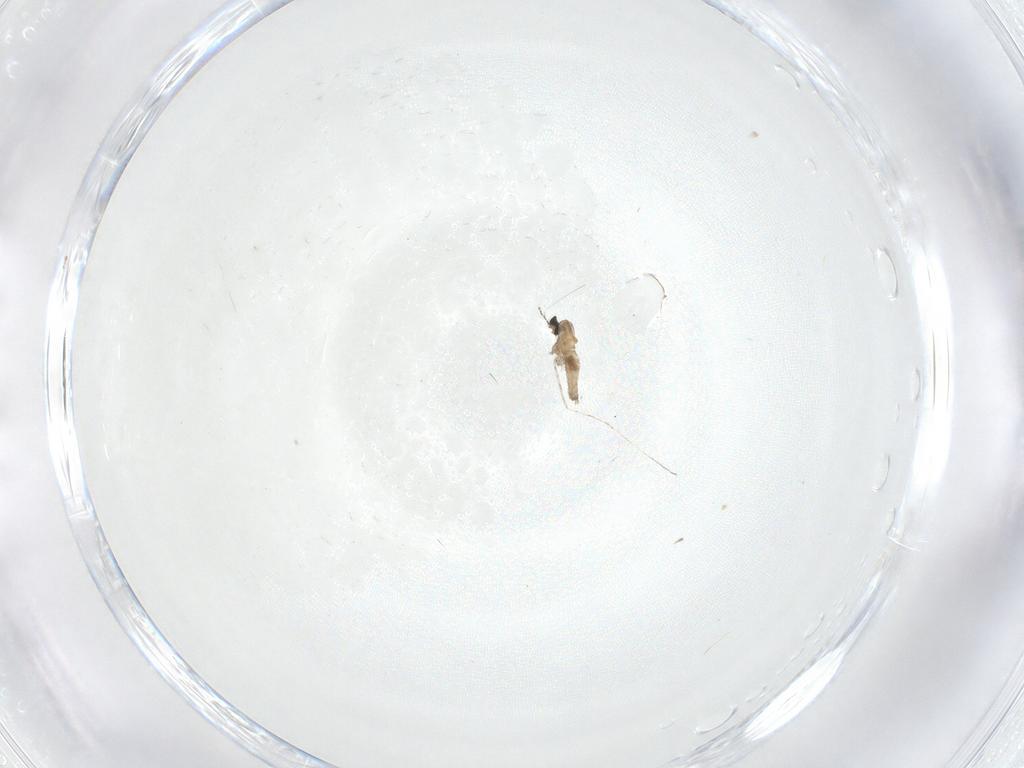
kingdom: Animalia
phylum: Arthropoda
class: Insecta
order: Diptera
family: Cecidomyiidae
